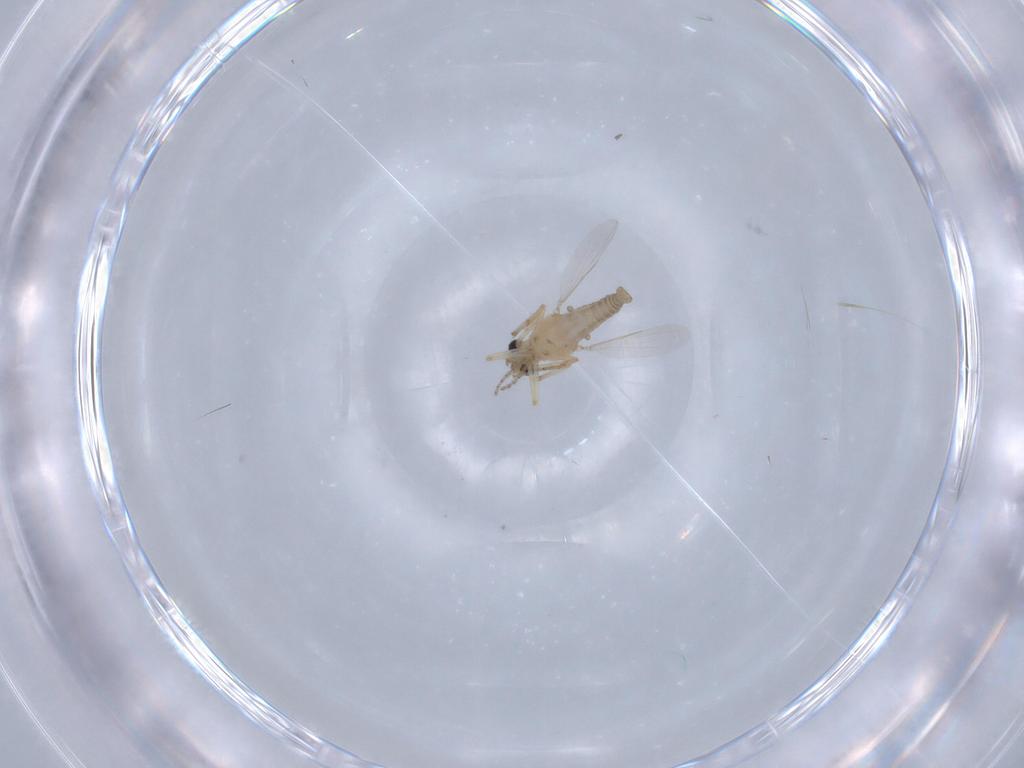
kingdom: Animalia
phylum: Arthropoda
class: Insecta
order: Diptera
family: Ceratopogonidae
